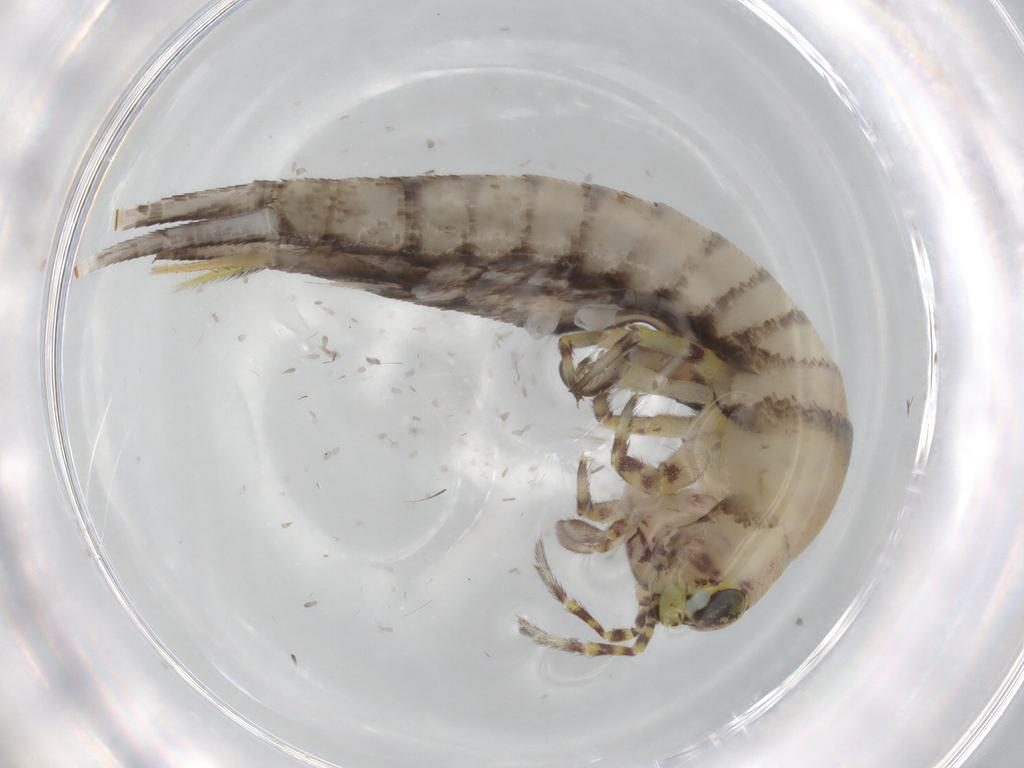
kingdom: Animalia
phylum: Arthropoda
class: Insecta
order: Archaeognatha
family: Machilidae
